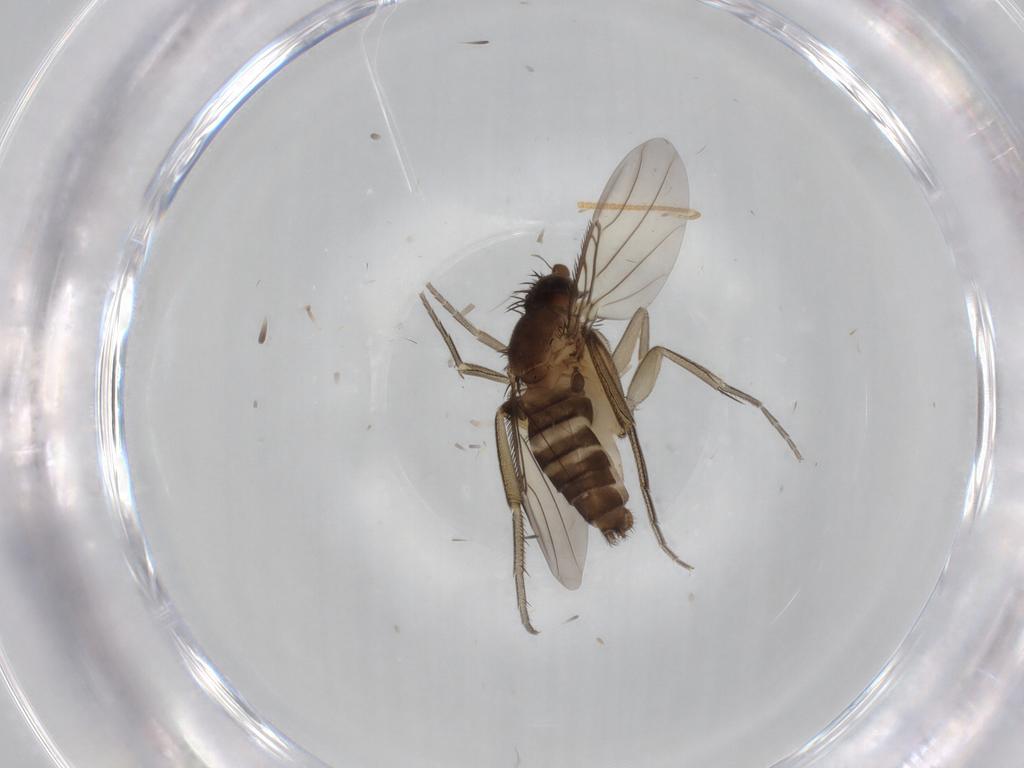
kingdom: Animalia
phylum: Arthropoda
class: Insecta
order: Diptera
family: Phoridae
